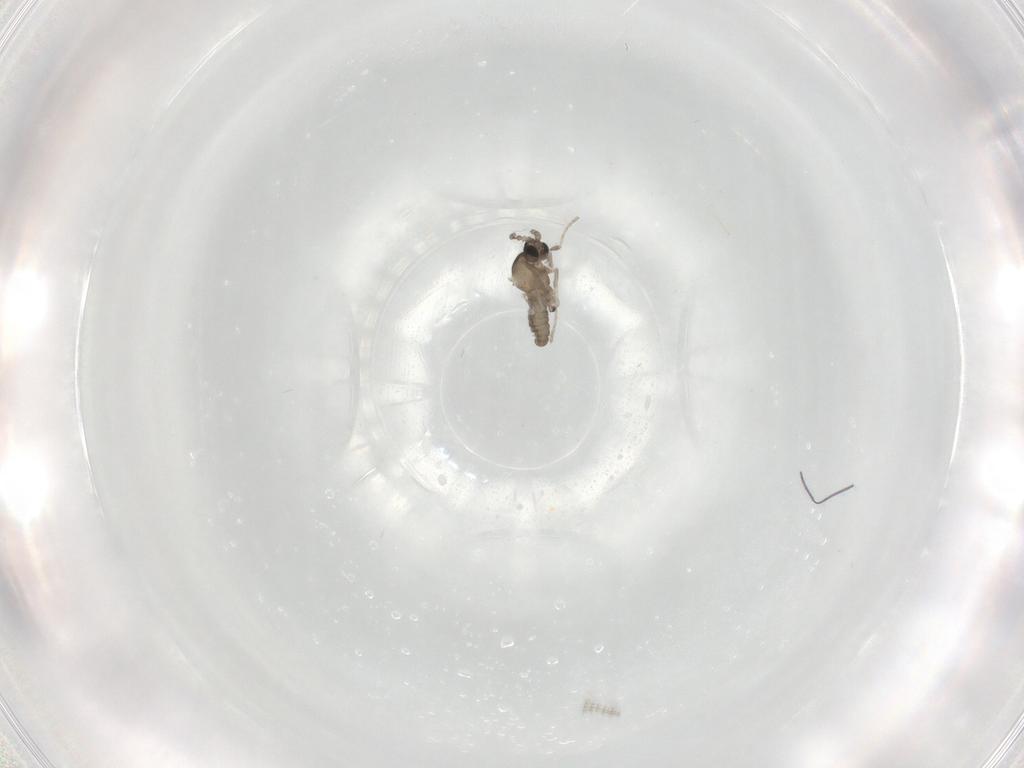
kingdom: Animalia
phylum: Arthropoda
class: Insecta
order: Diptera
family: Cecidomyiidae
